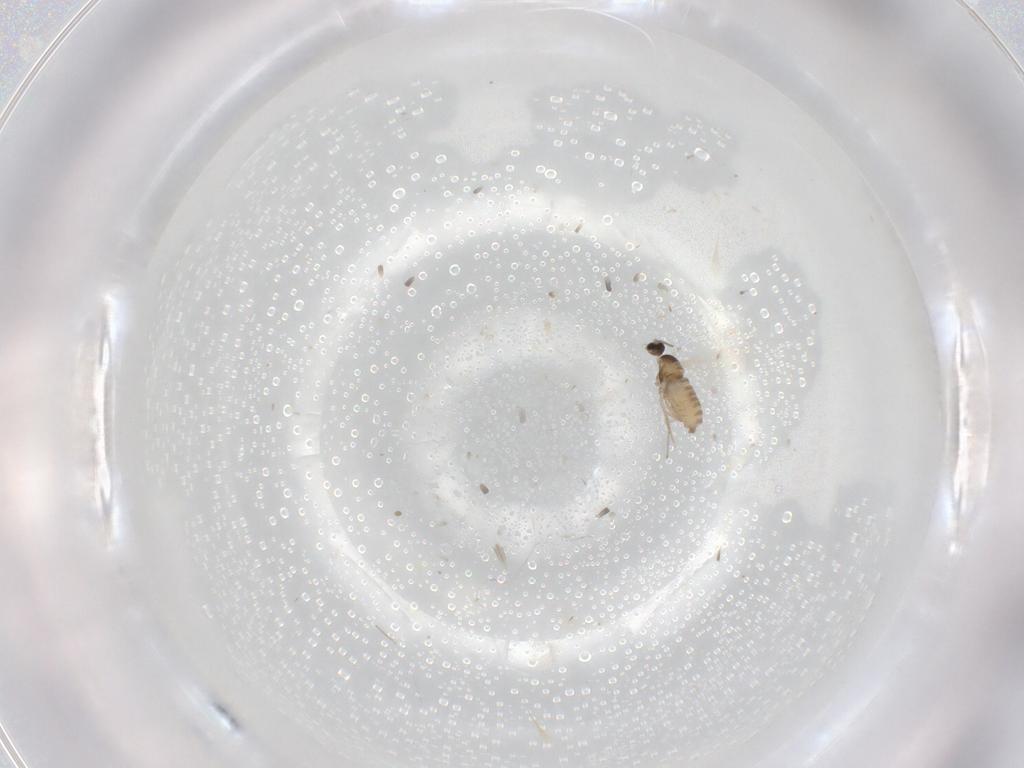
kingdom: Animalia
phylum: Arthropoda
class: Insecta
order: Diptera
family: Cecidomyiidae
